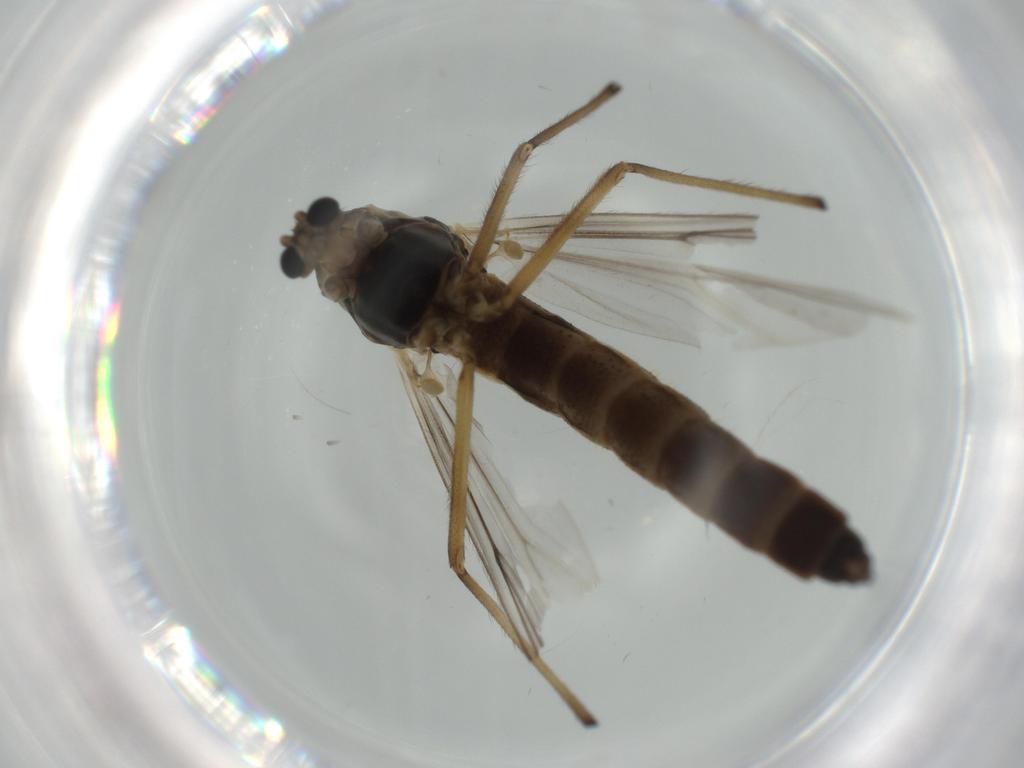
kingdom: Animalia
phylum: Arthropoda
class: Insecta
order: Diptera
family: Chironomidae
